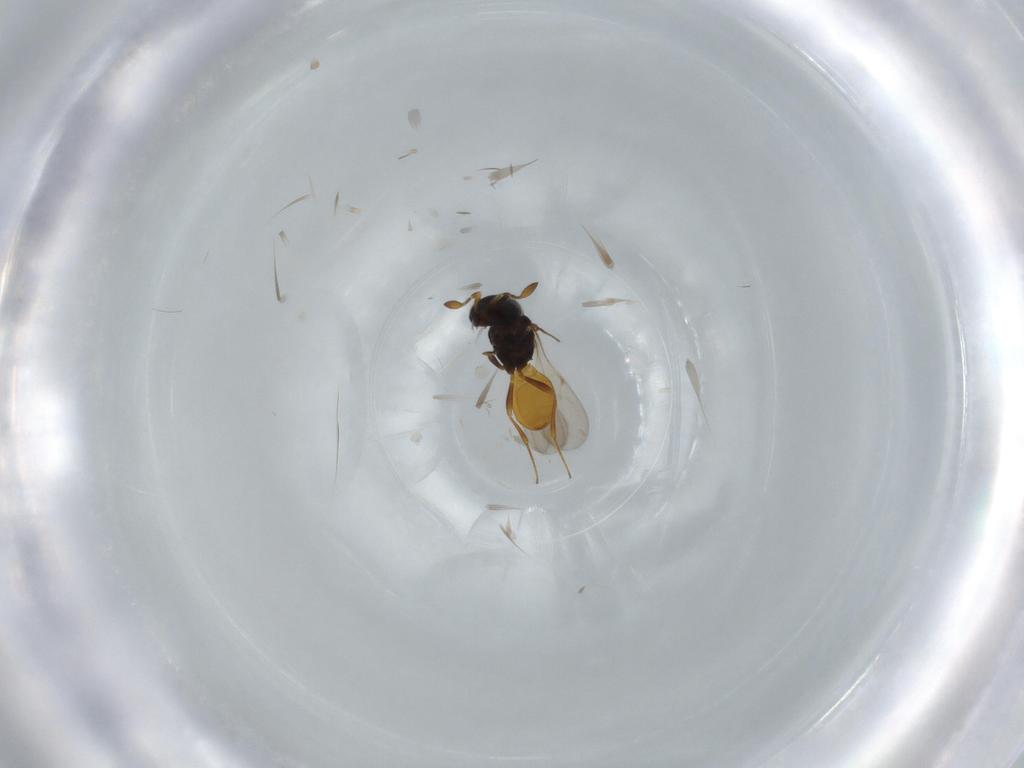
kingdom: Animalia
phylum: Arthropoda
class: Insecta
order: Hymenoptera
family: Scelionidae
